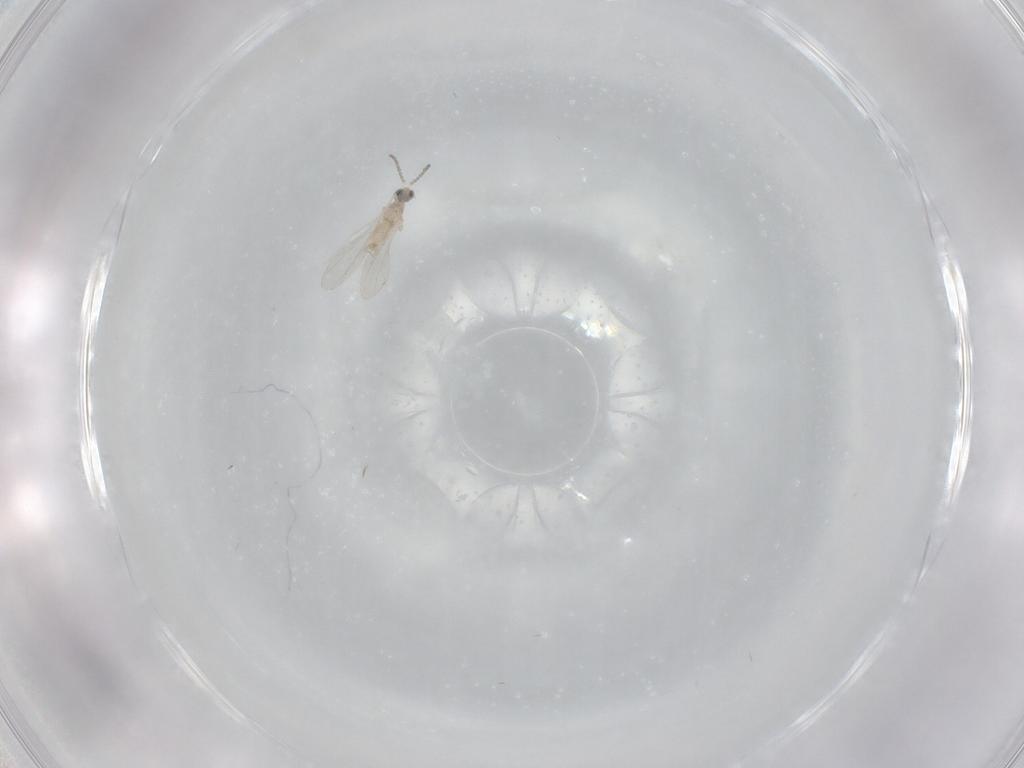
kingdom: Animalia
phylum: Arthropoda
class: Insecta
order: Diptera
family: Cecidomyiidae
